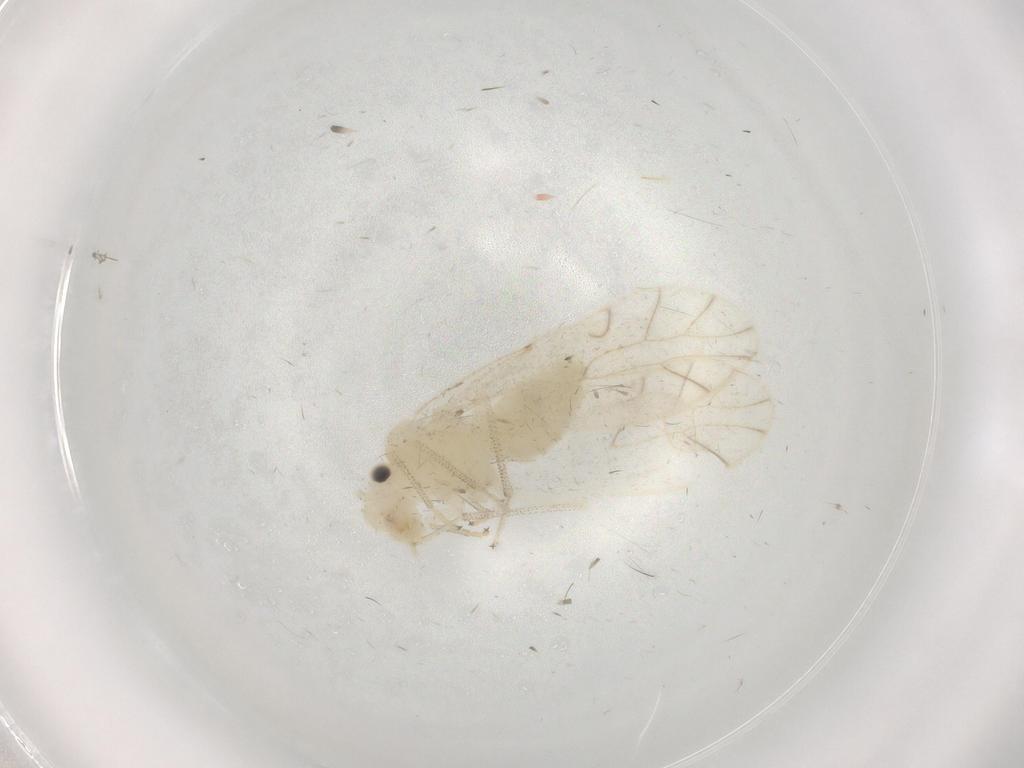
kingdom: Animalia
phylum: Arthropoda
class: Insecta
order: Psocodea
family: Caeciliusidae
